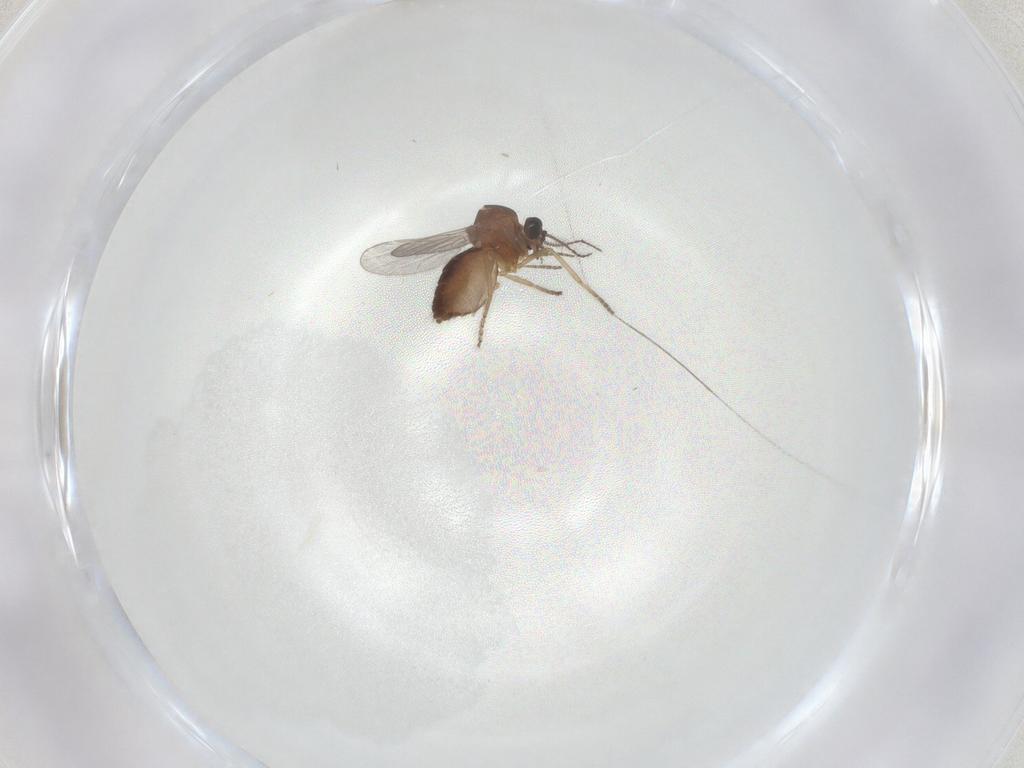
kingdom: Animalia
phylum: Arthropoda
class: Insecta
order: Diptera
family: Ceratopogonidae
